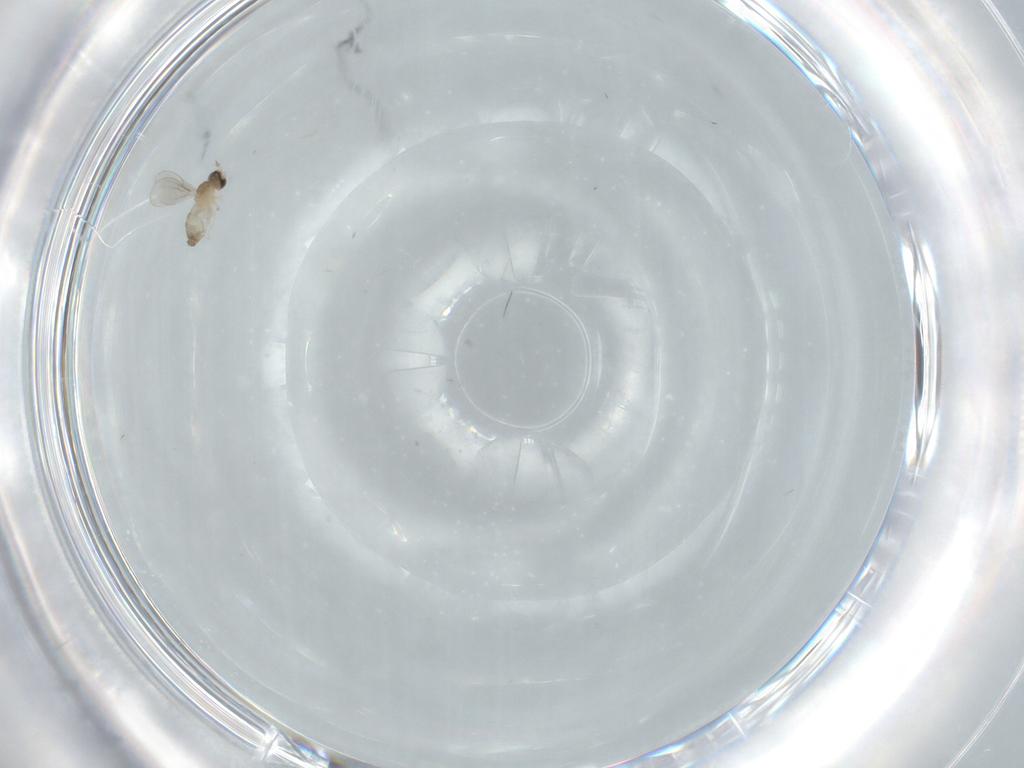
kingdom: Animalia
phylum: Arthropoda
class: Insecta
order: Diptera
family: Cecidomyiidae
